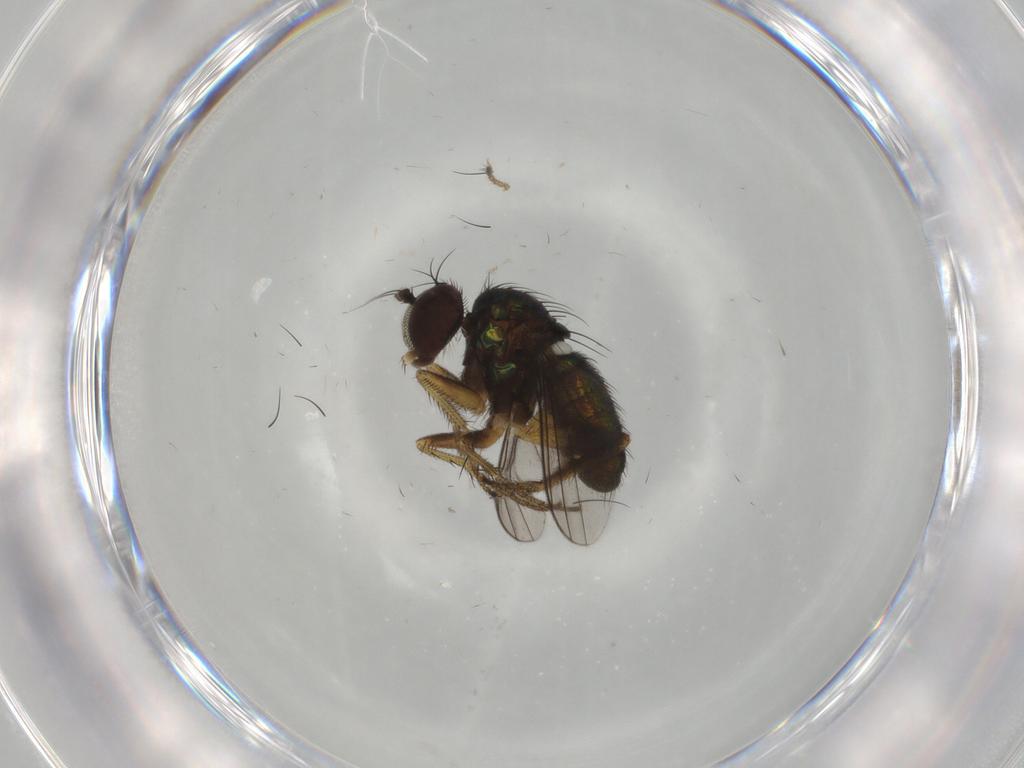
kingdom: Animalia
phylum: Arthropoda
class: Insecta
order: Diptera
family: Dolichopodidae
